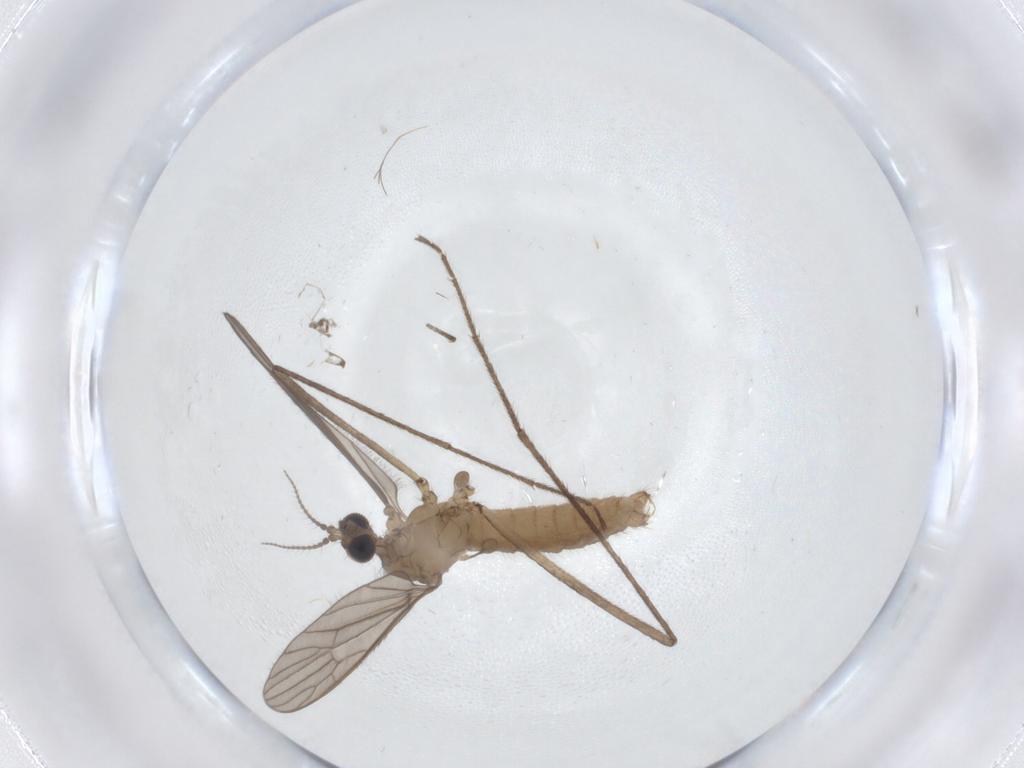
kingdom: Animalia
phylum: Arthropoda
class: Insecta
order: Diptera
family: Limoniidae
